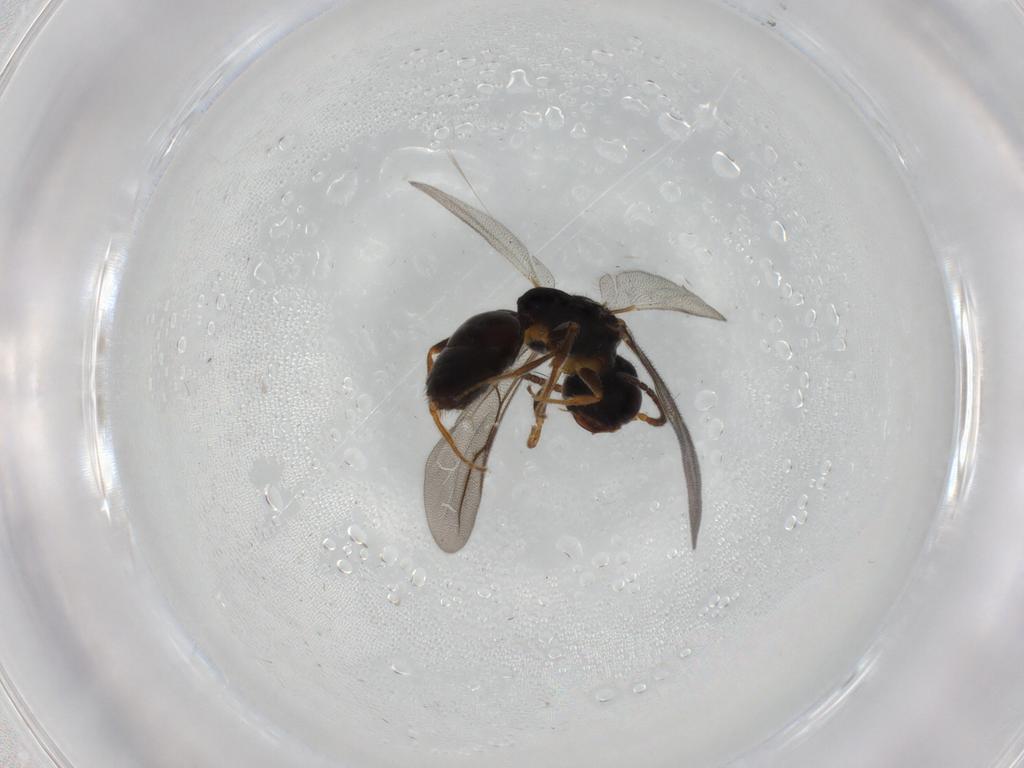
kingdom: Animalia
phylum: Arthropoda
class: Insecta
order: Hymenoptera
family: Bethylidae
